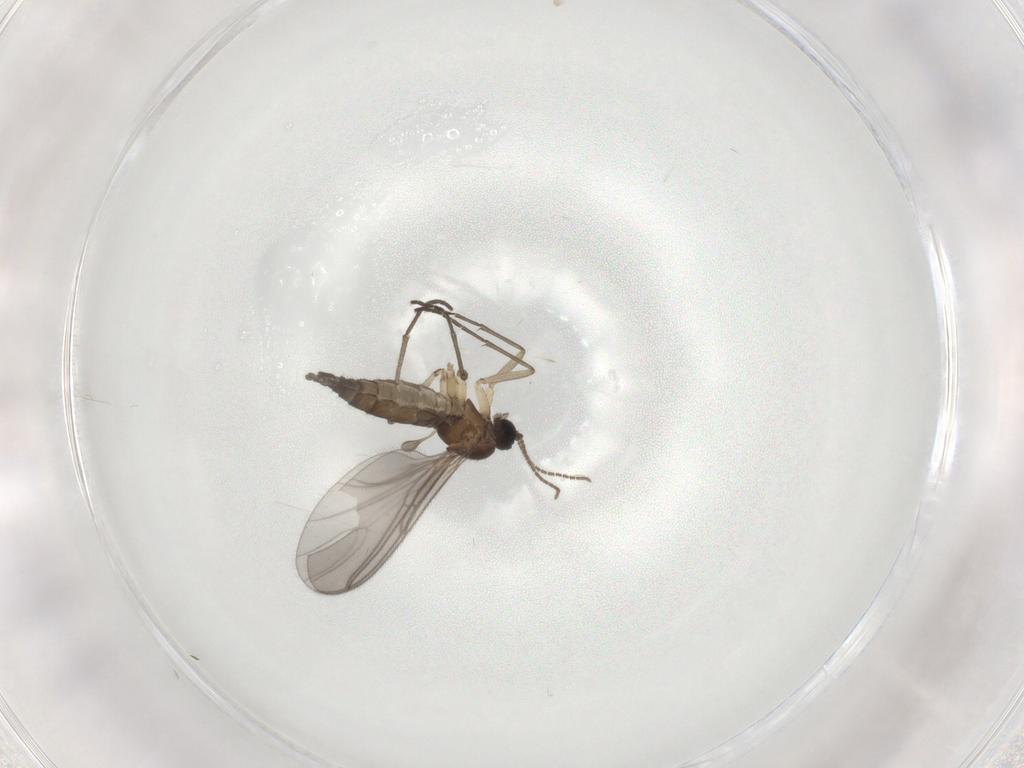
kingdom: Animalia
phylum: Arthropoda
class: Insecta
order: Diptera
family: Sciaridae
